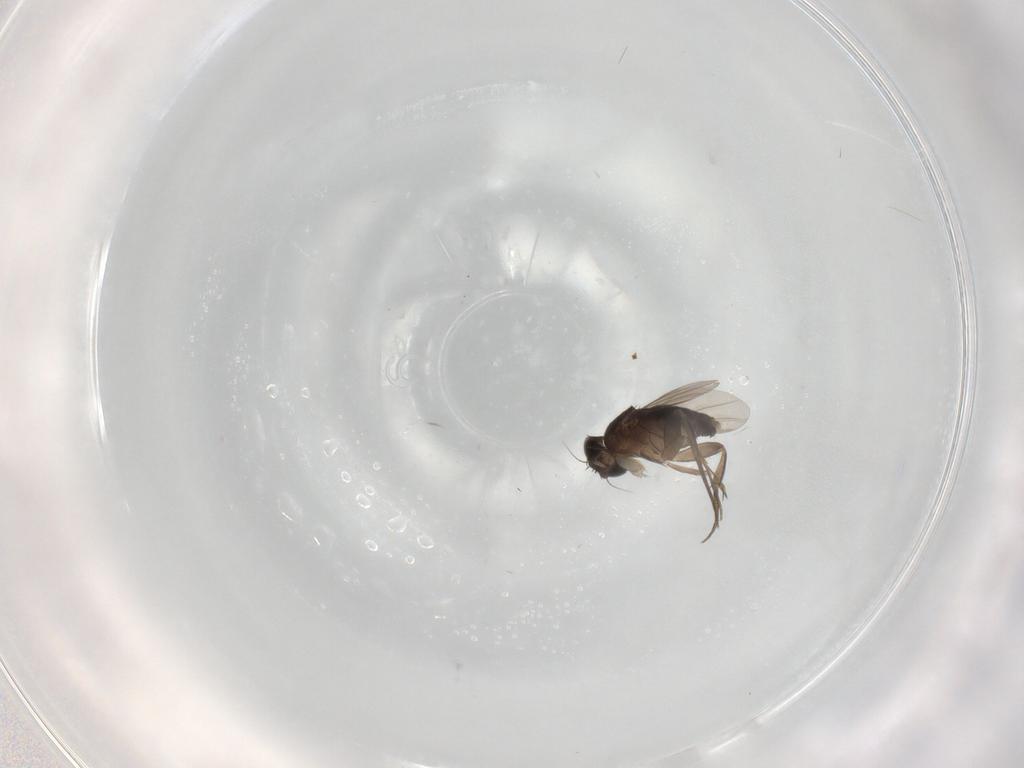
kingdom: Animalia
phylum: Arthropoda
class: Insecta
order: Diptera
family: Phoridae
